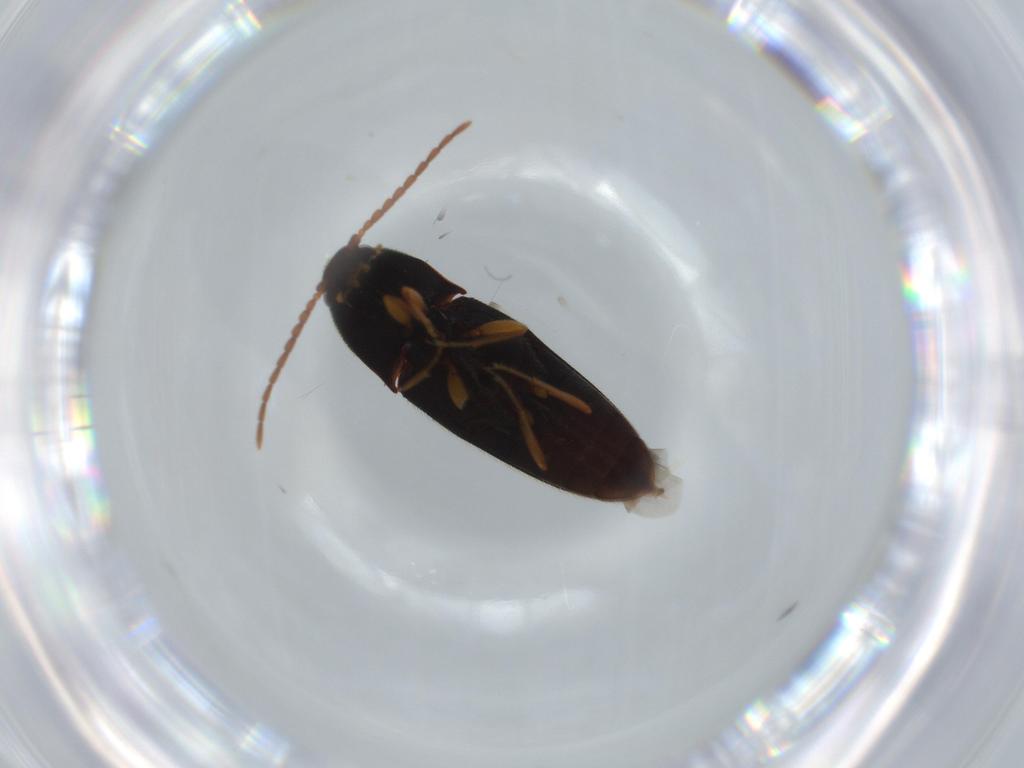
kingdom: Animalia
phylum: Arthropoda
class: Insecta
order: Coleoptera
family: Elateridae
